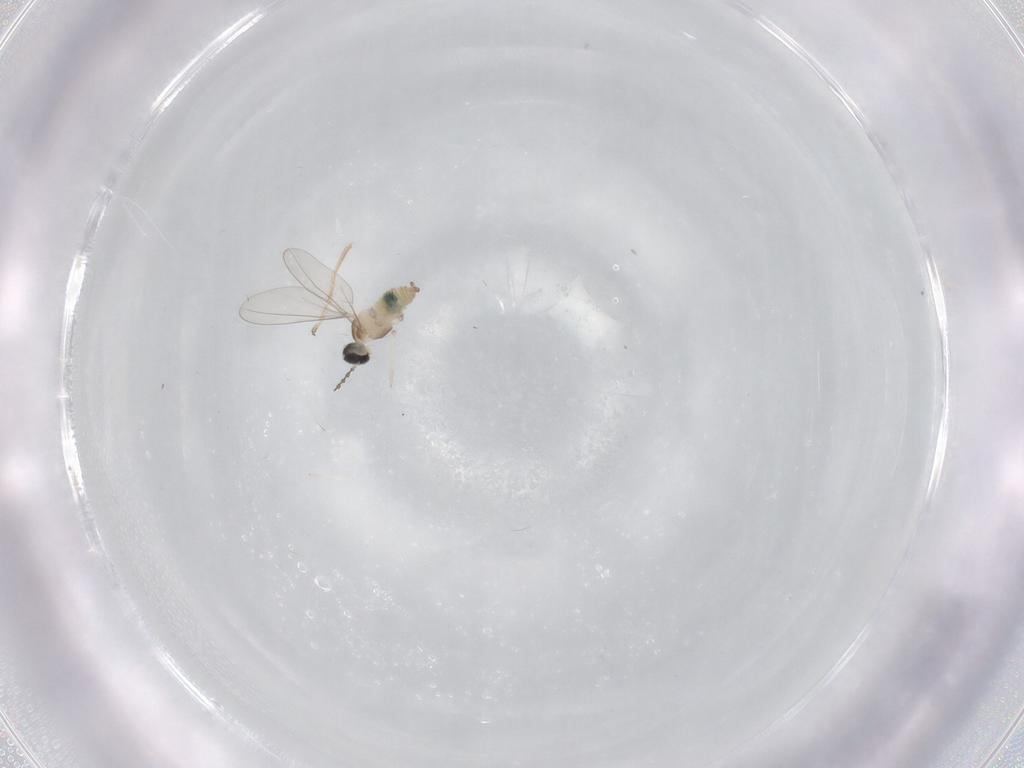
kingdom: Animalia
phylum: Arthropoda
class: Insecta
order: Diptera
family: Cecidomyiidae
